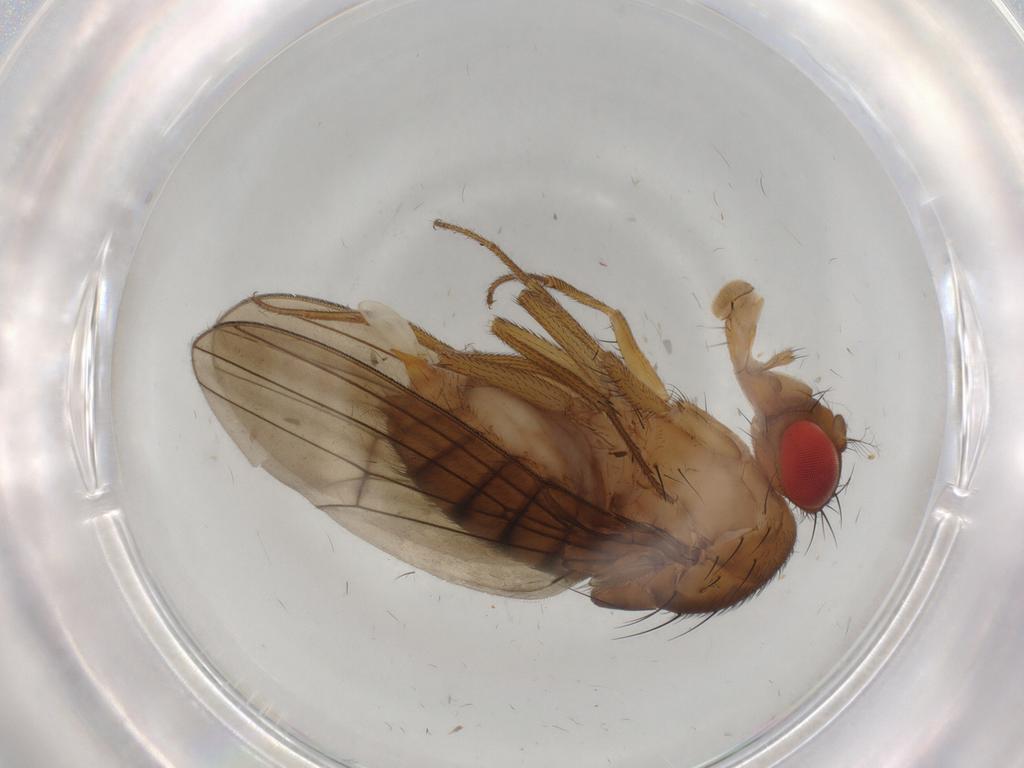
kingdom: Animalia
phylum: Arthropoda
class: Insecta
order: Diptera
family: Drosophilidae
